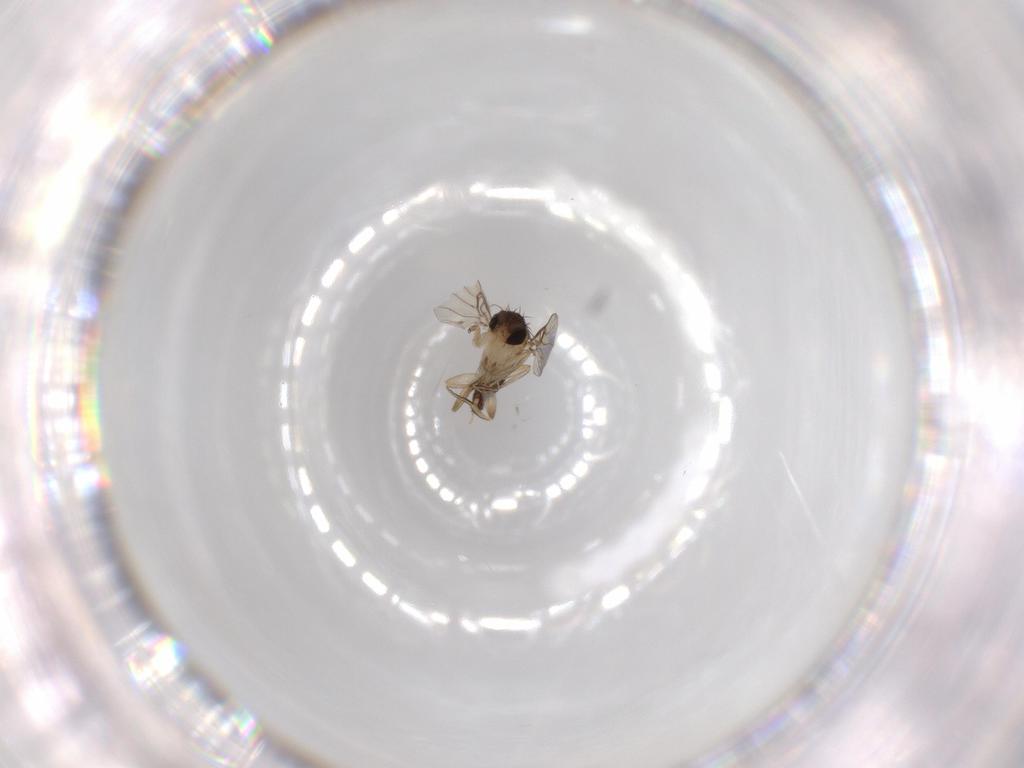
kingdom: Animalia
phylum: Arthropoda
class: Insecta
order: Diptera
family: Phoridae
